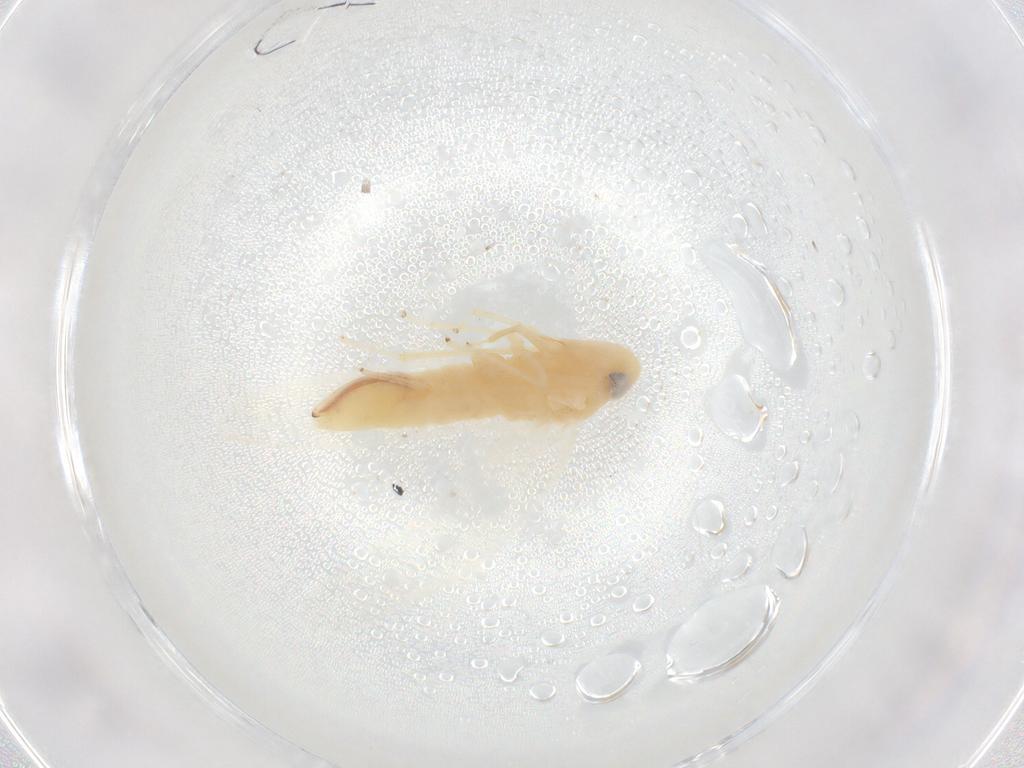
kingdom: Animalia
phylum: Arthropoda
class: Insecta
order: Hemiptera
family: Cicadellidae
